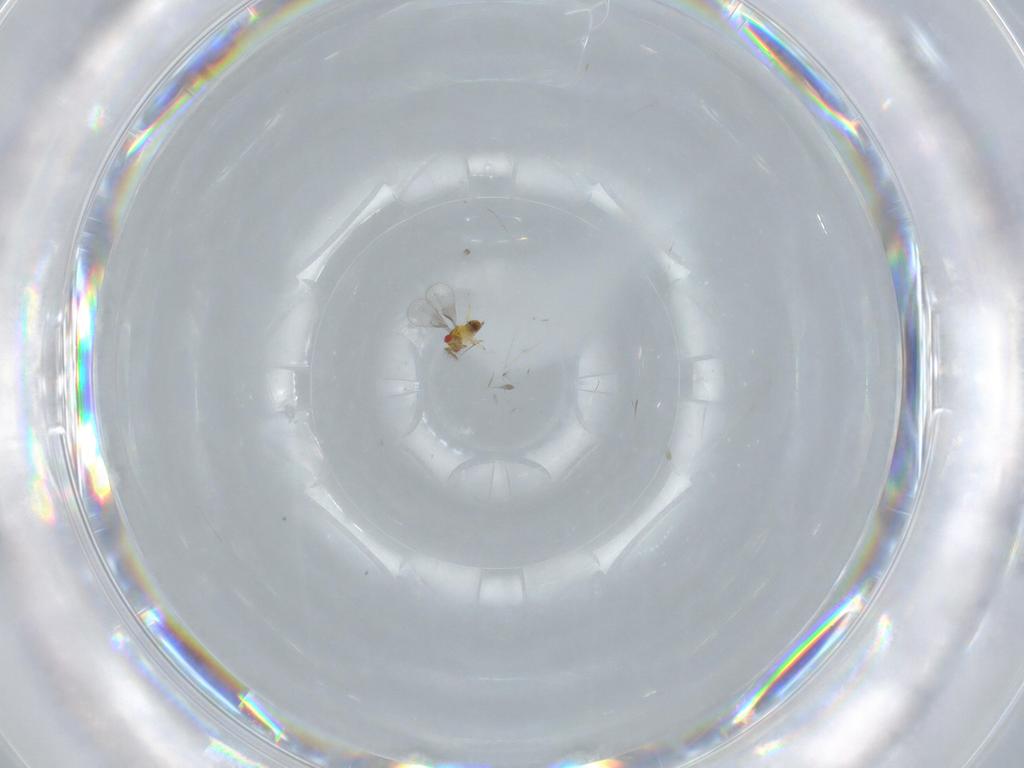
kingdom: Animalia
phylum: Arthropoda
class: Insecta
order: Hymenoptera
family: Trichogrammatidae
